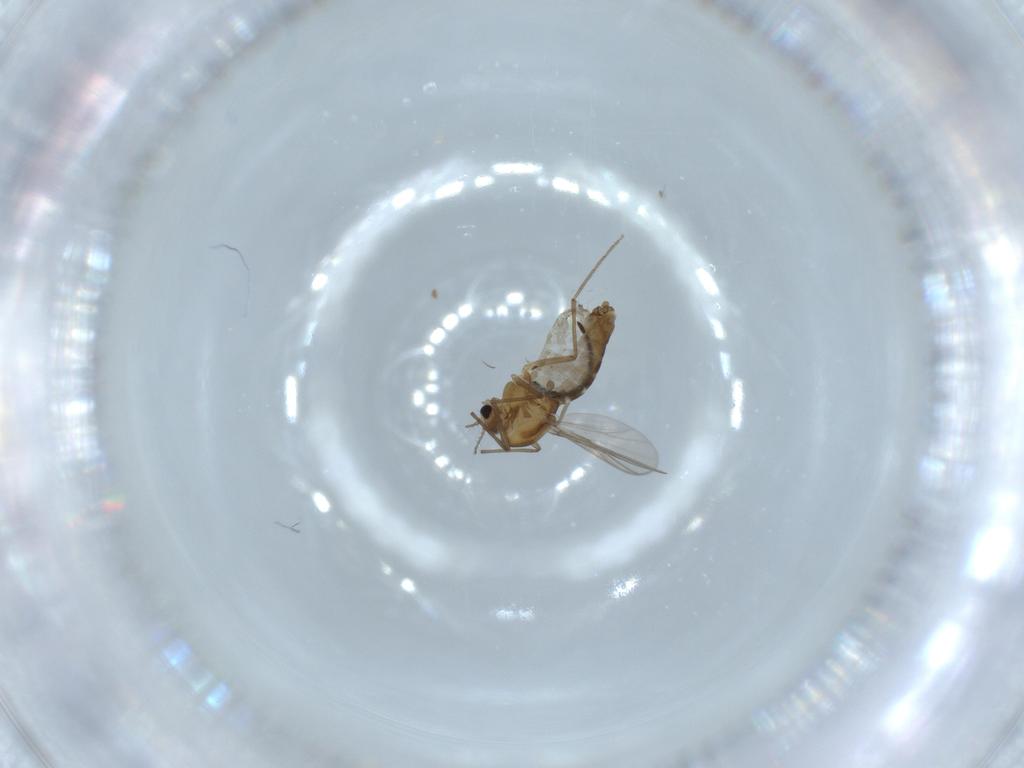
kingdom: Animalia
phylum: Arthropoda
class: Insecta
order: Diptera
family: Chironomidae
